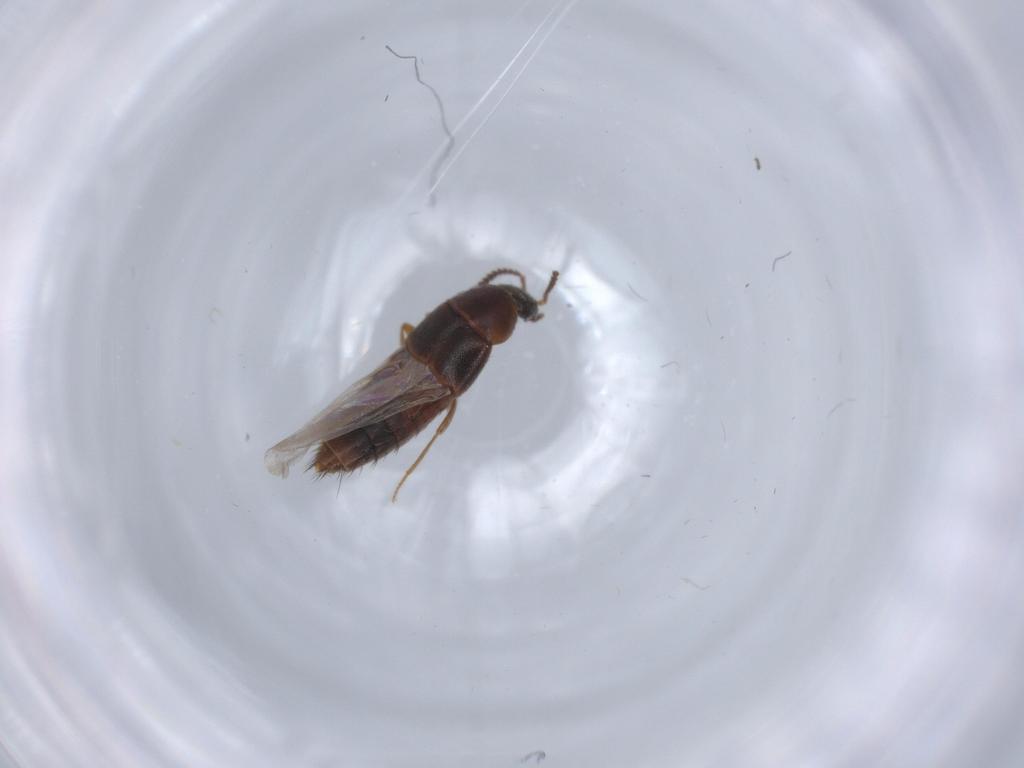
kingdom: Animalia
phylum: Arthropoda
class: Insecta
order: Coleoptera
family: Staphylinidae
